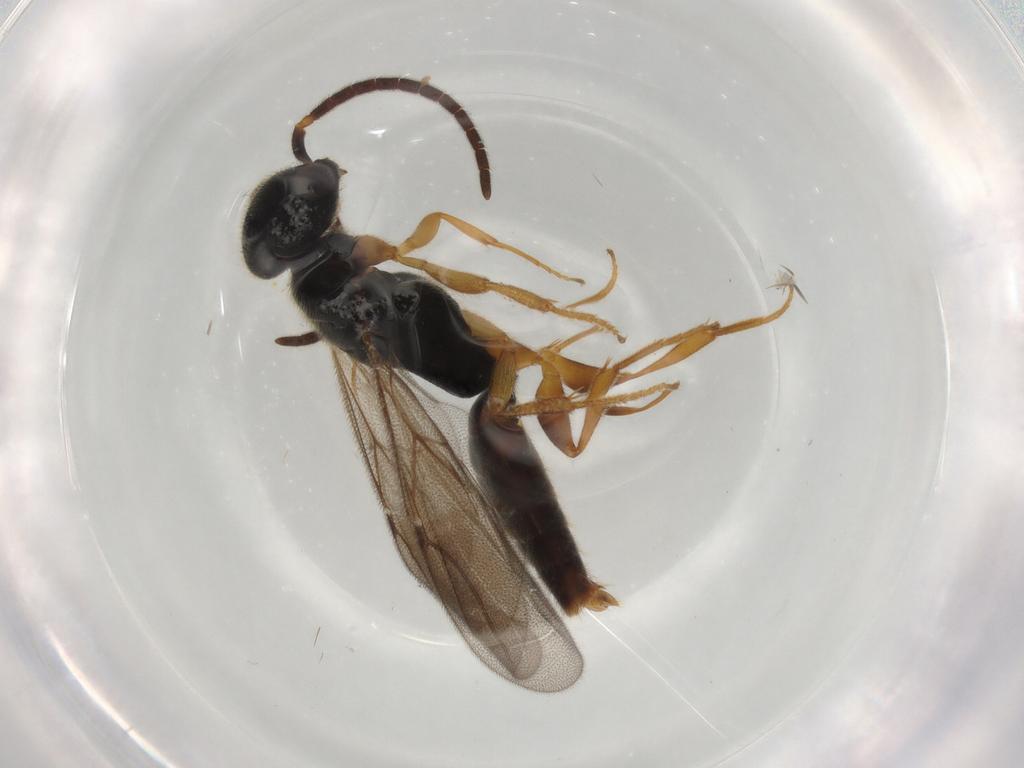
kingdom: Animalia
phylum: Arthropoda
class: Insecta
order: Hymenoptera
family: Bethylidae
